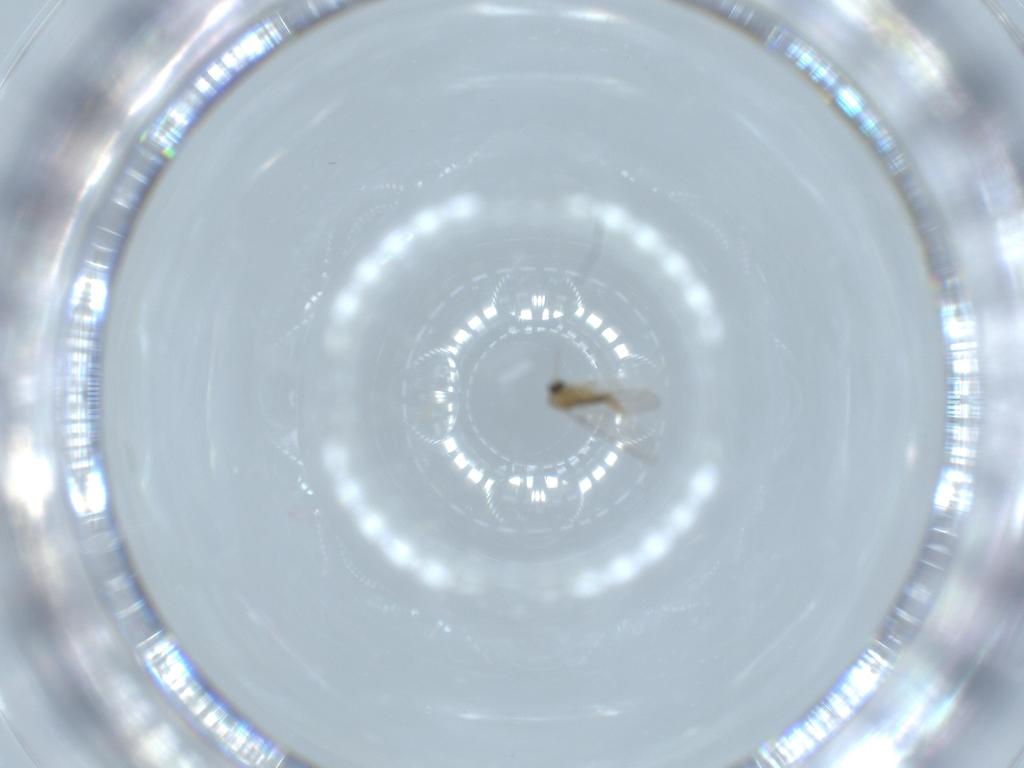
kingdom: Animalia
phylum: Arthropoda
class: Insecta
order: Diptera
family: Cecidomyiidae
